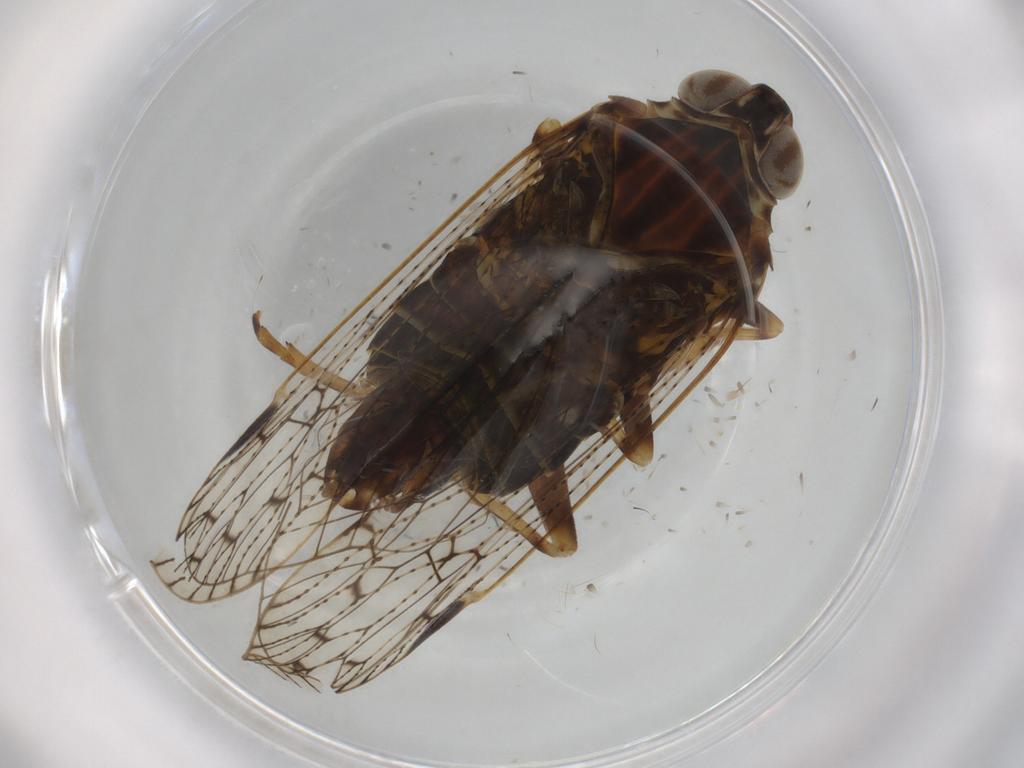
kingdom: Animalia
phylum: Arthropoda
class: Insecta
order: Hemiptera
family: Cixiidae
